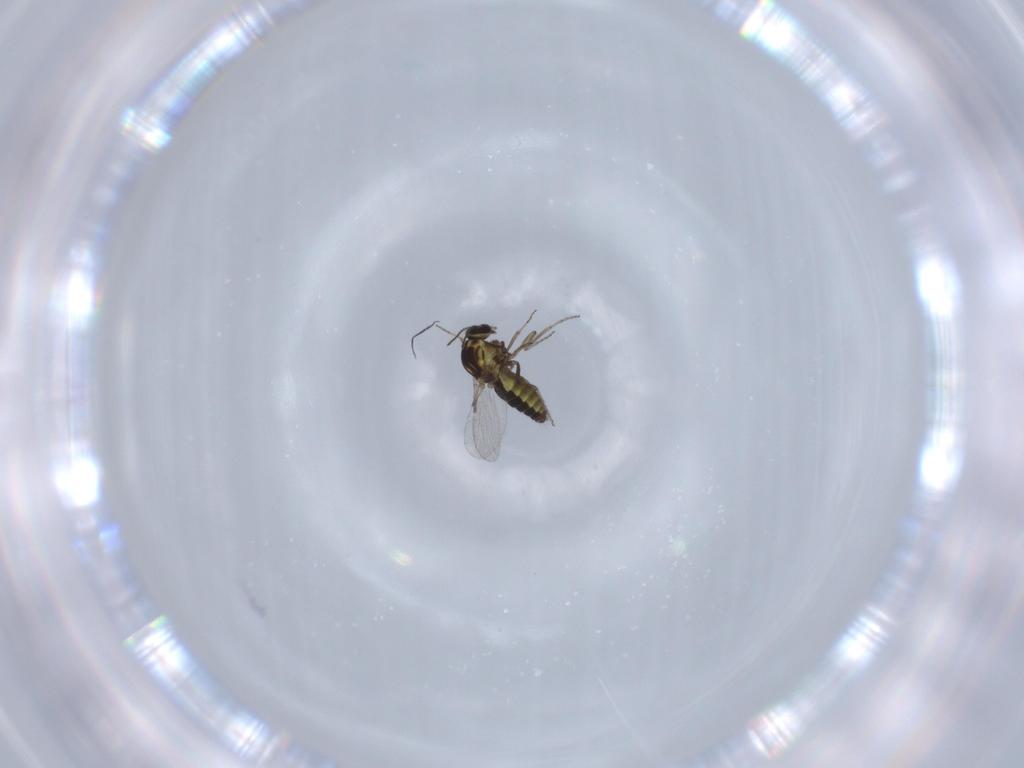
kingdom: Animalia
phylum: Arthropoda
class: Insecta
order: Diptera
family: Ceratopogonidae
